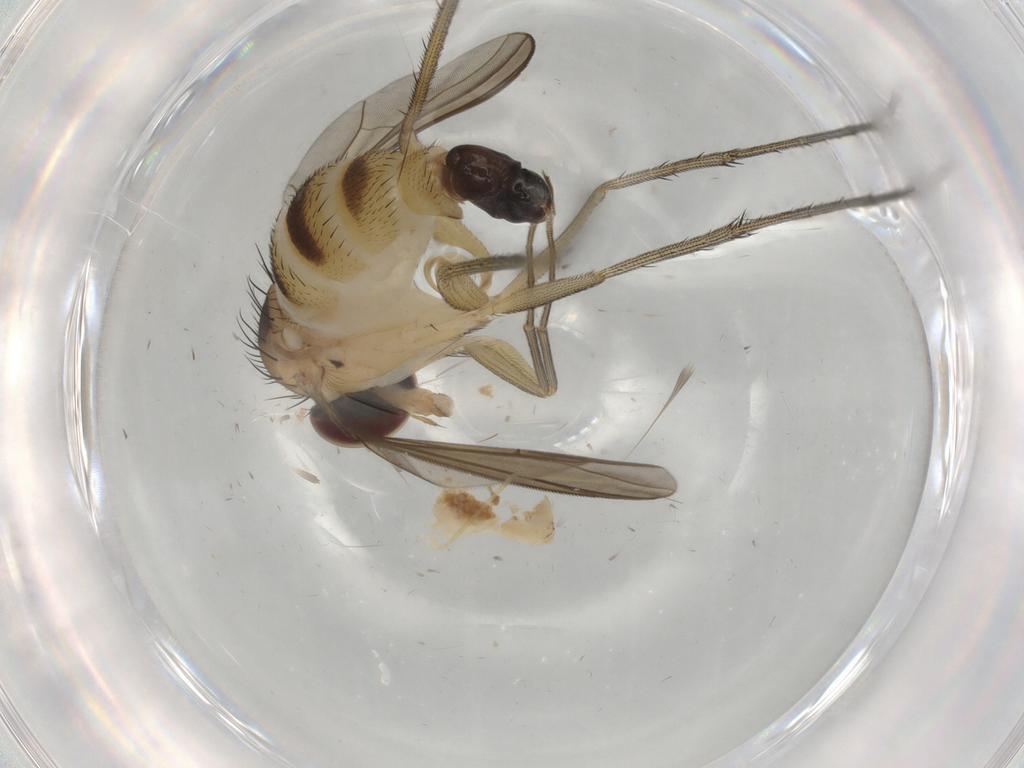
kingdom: Animalia
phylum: Arthropoda
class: Insecta
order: Diptera
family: Dolichopodidae
